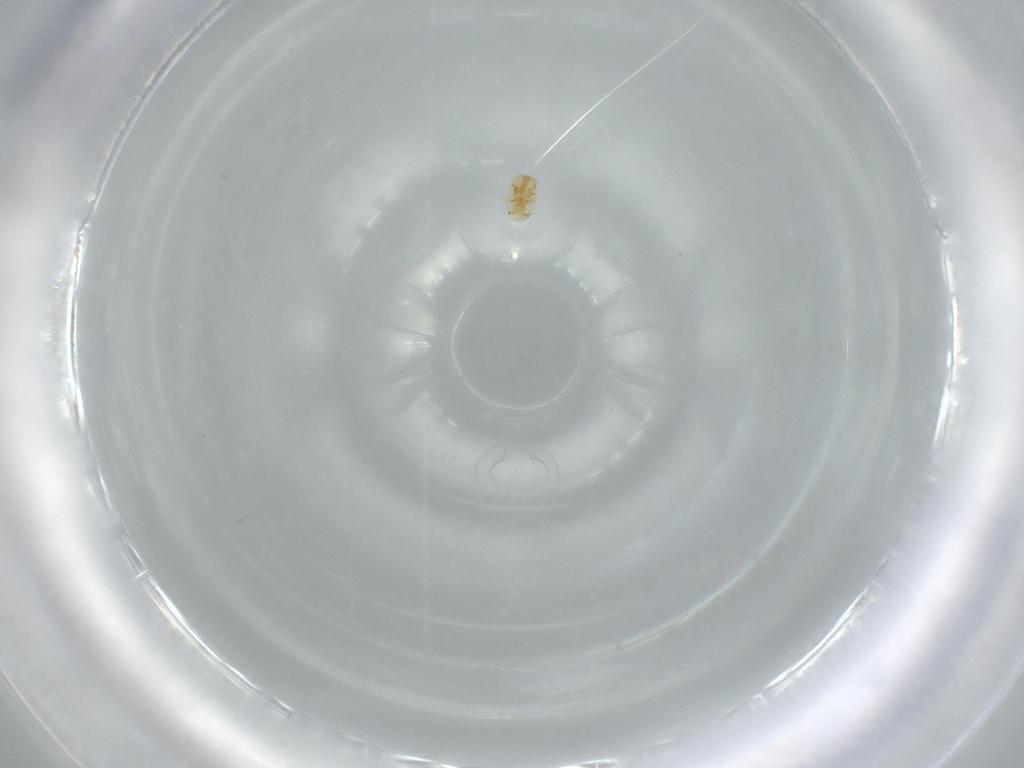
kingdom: Animalia
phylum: Arthropoda
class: Insecta
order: Hemiptera
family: Coccoidea_incertae_sedis
